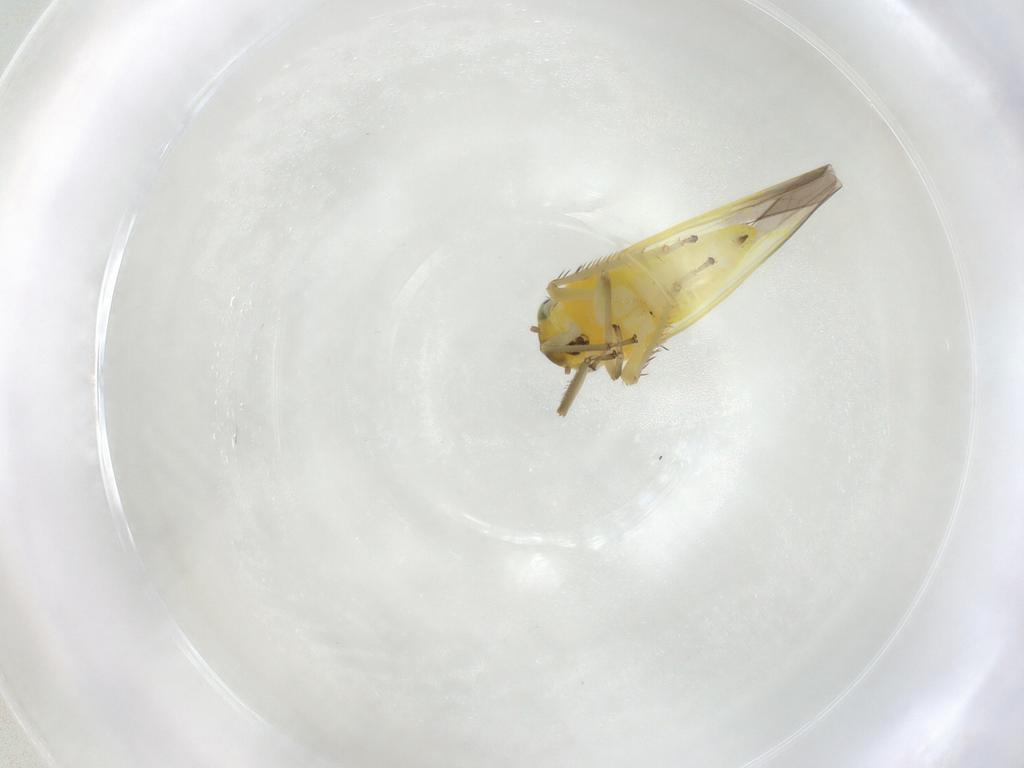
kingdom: Animalia
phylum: Arthropoda
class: Insecta
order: Hemiptera
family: Cicadellidae
